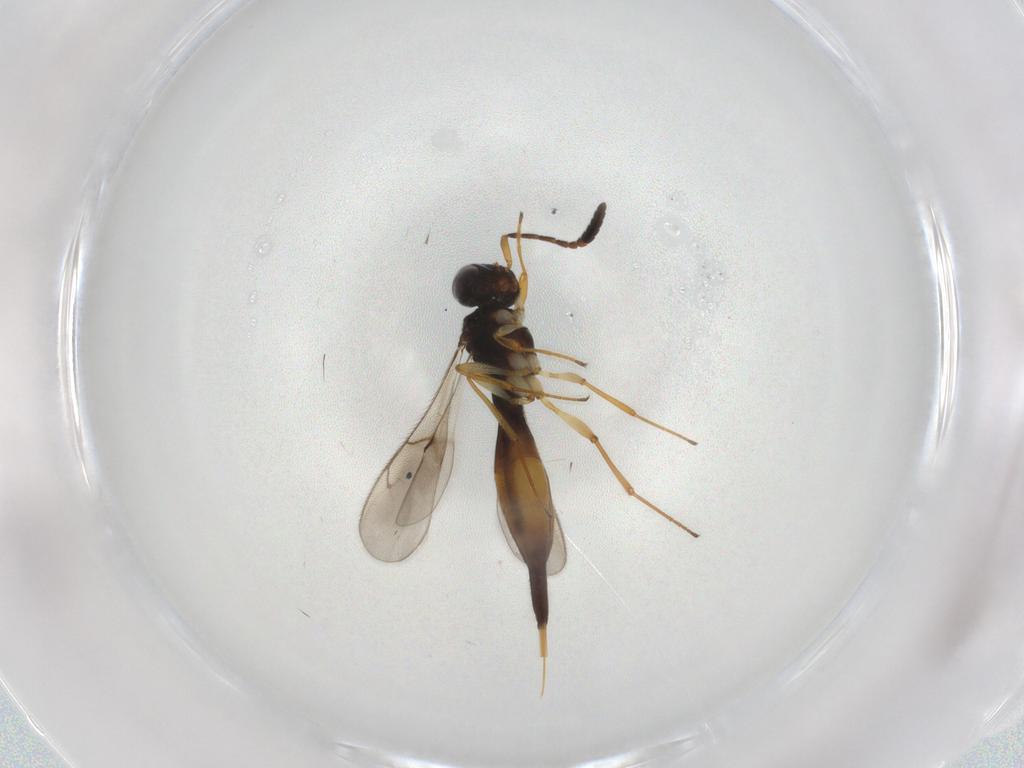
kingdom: Animalia
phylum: Arthropoda
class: Insecta
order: Hymenoptera
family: Scelionidae
